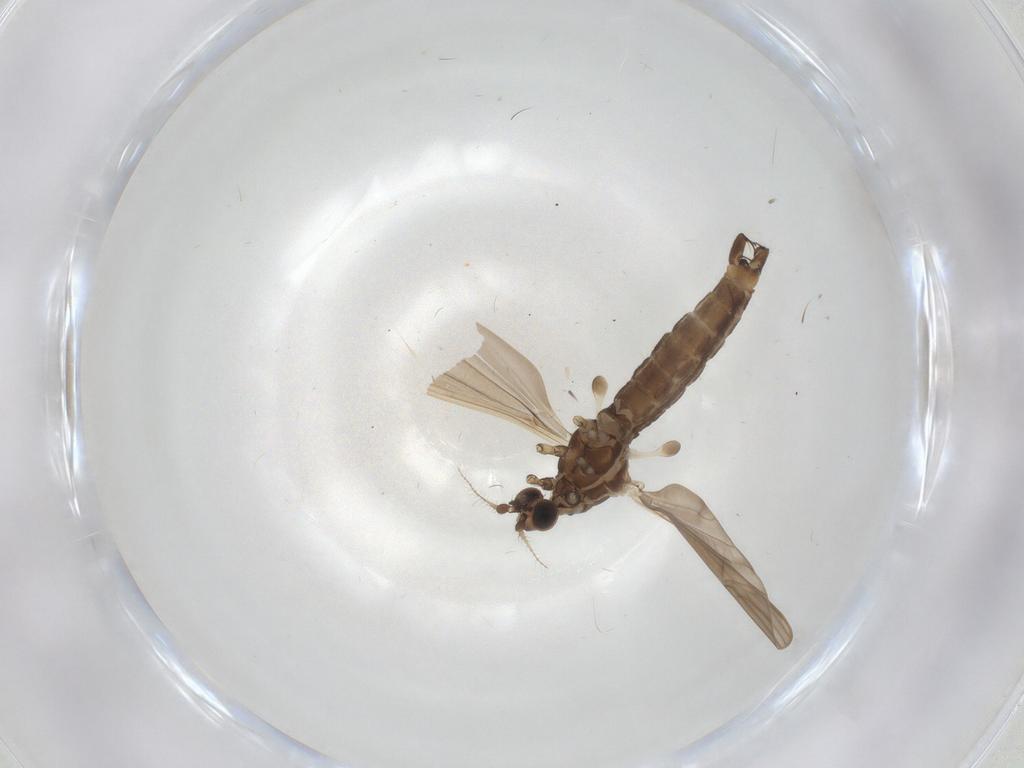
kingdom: Animalia
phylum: Arthropoda
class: Insecta
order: Diptera
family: Limoniidae
